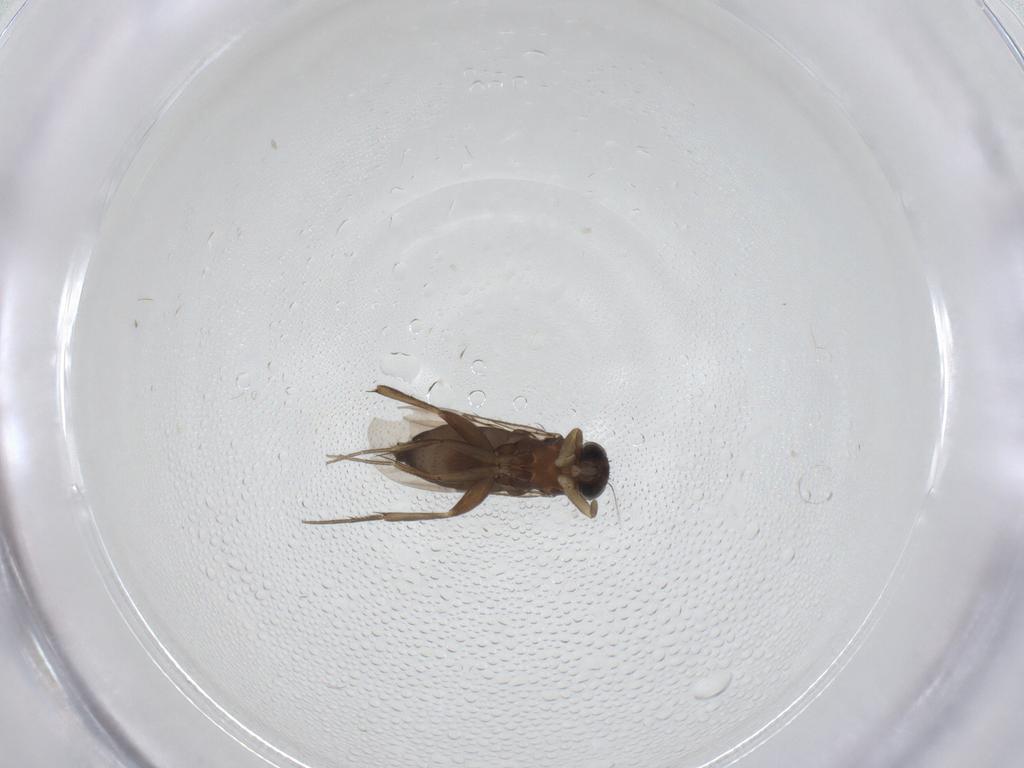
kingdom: Animalia
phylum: Arthropoda
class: Insecta
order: Diptera
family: Phoridae
